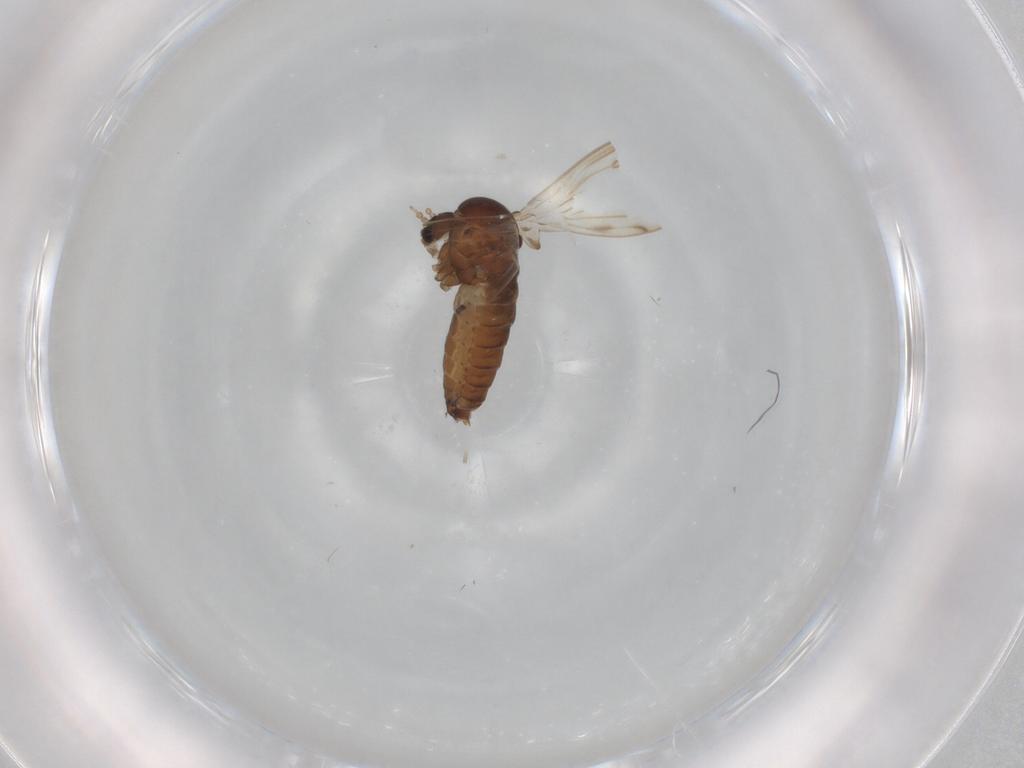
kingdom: Animalia
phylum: Arthropoda
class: Insecta
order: Diptera
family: Psychodidae
